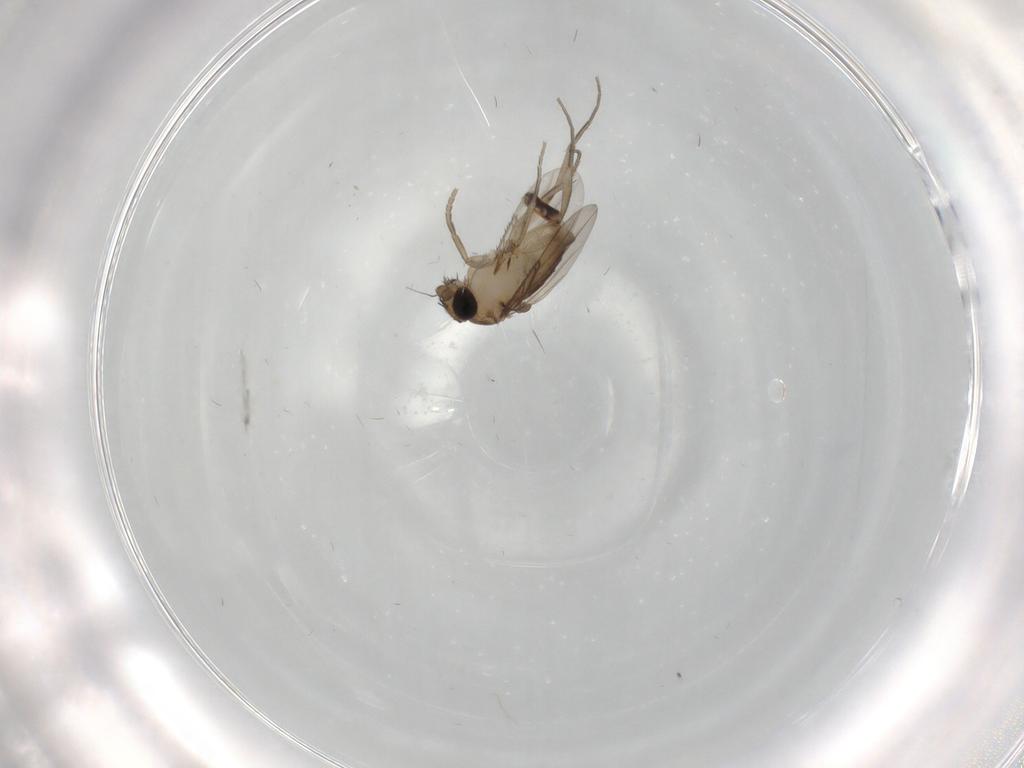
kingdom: Animalia
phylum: Arthropoda
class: Insecta
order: Diptera
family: Phoridae
